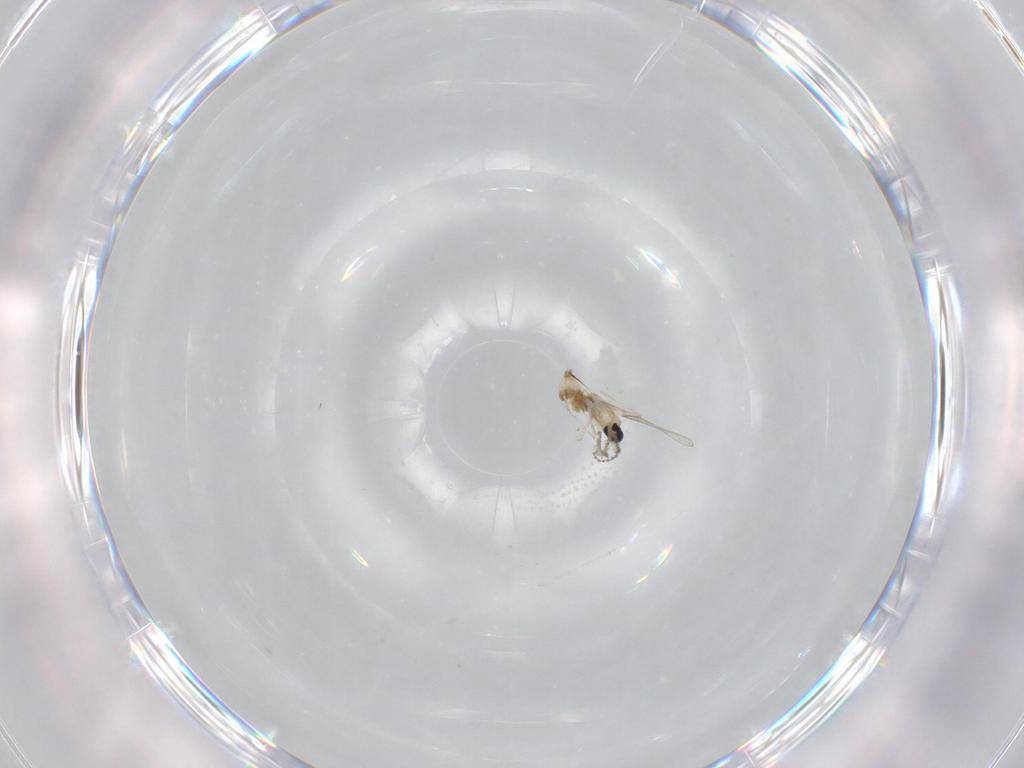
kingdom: Animalia
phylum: Arthropoda
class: Insecta
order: Diptera
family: Cecidomyiidae
